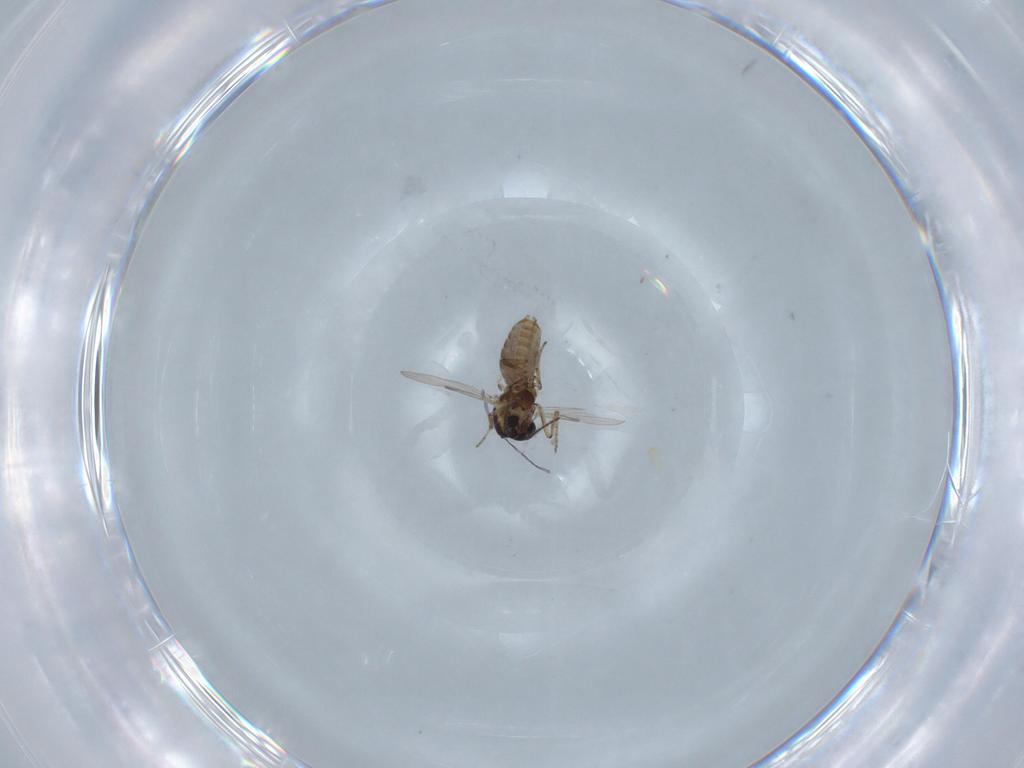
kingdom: Animalia
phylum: Arthropoda
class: Insecta
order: Diptera
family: Ceratopogonidae
